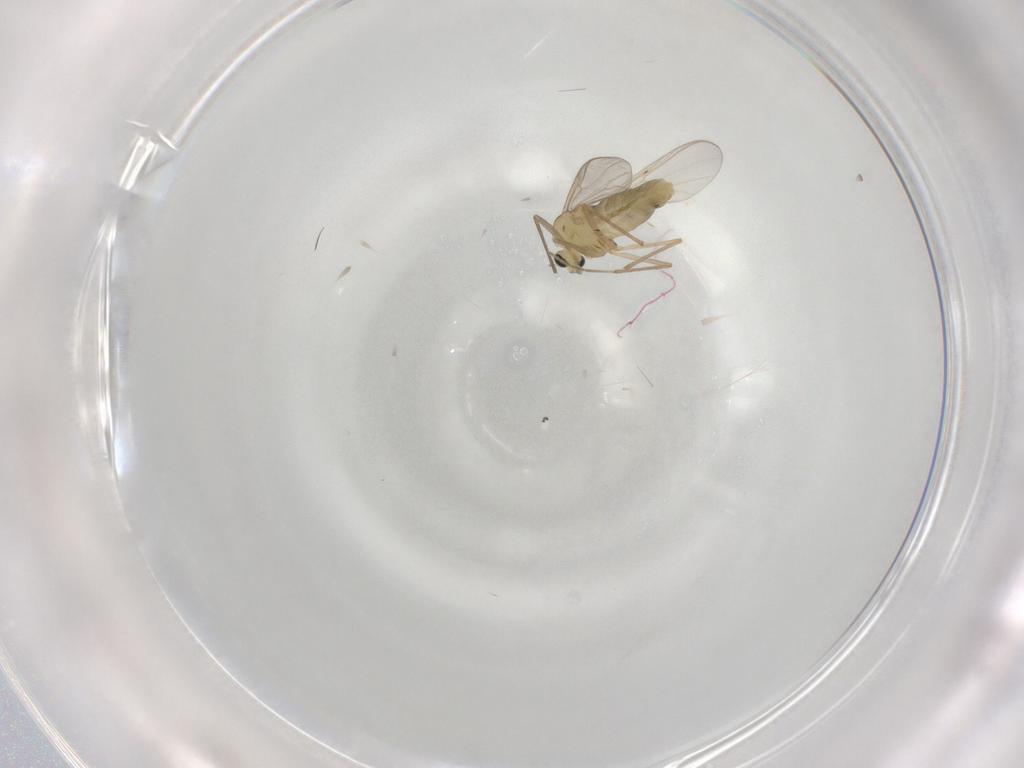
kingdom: Animalia
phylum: Arthropoda
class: Insecta
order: Diptera
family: Chironomidae
